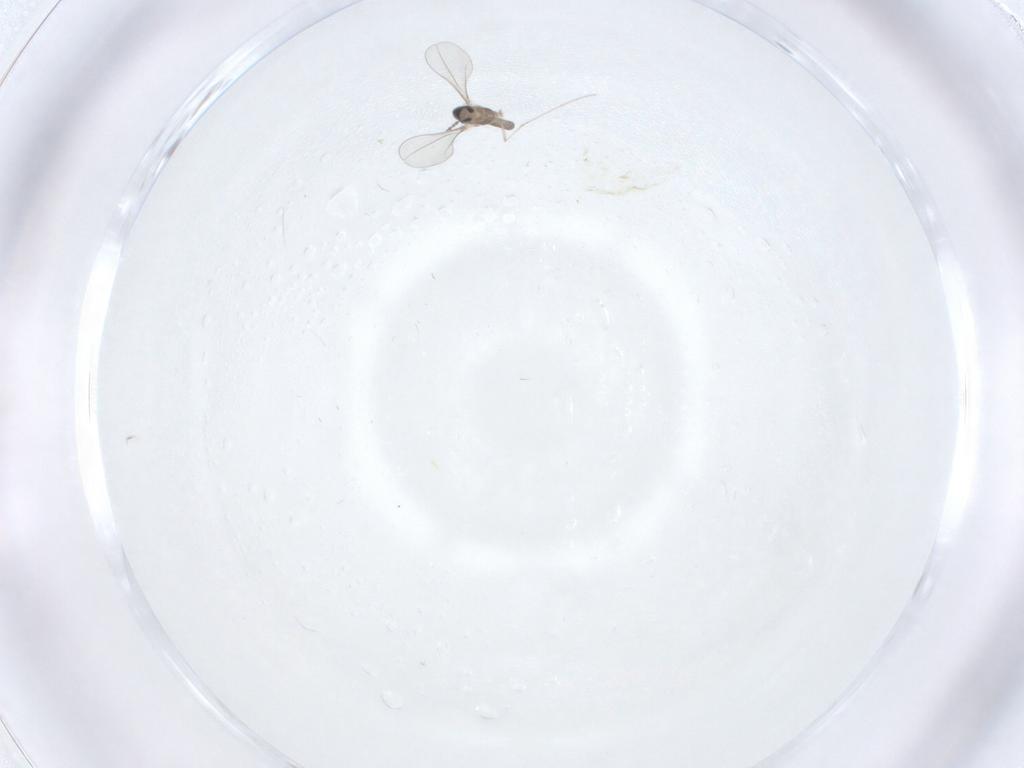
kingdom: Animalia
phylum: Arthropoda
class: Insecta
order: Diptera
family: Cecidomyiidae
